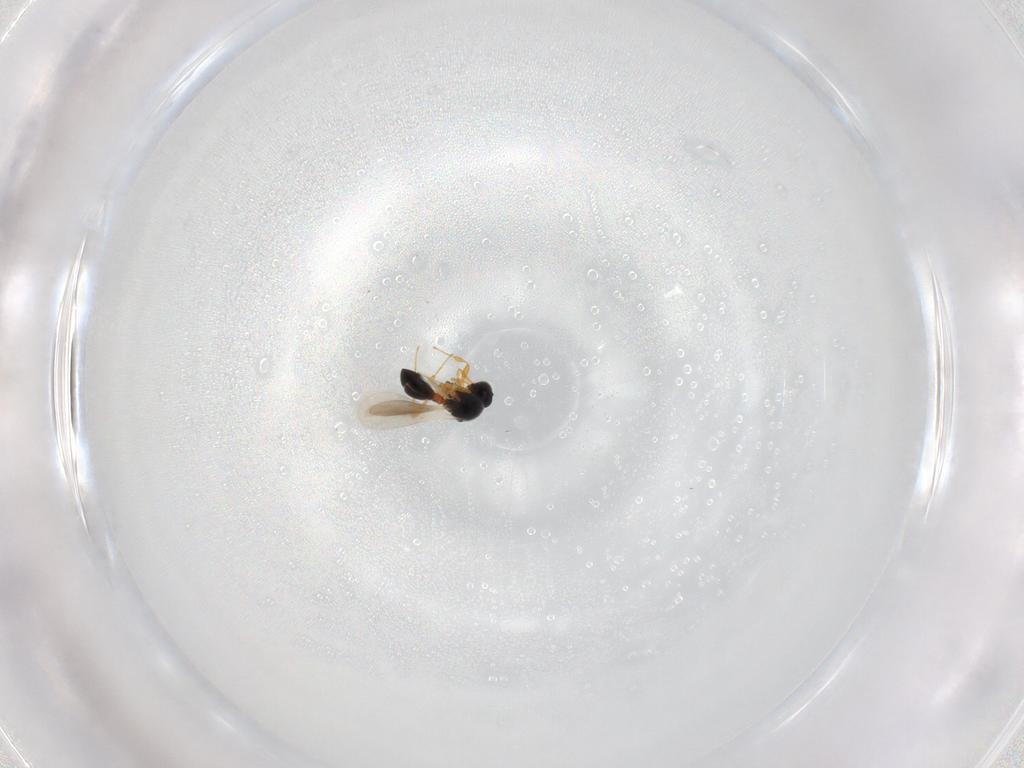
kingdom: Animalia
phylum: Arthropoda
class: Insecta
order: Hymenoptera
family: Platygastridae
